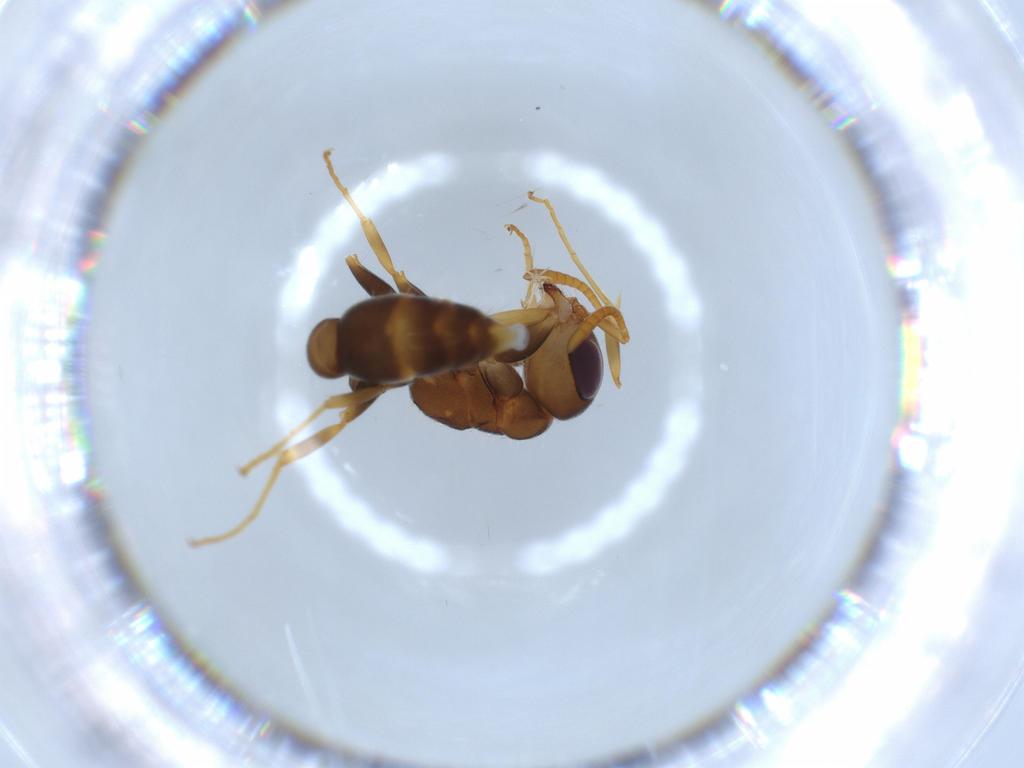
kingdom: Animalia
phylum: Arthropoda
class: Insecta
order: Hymenoptera
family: Formicidae
